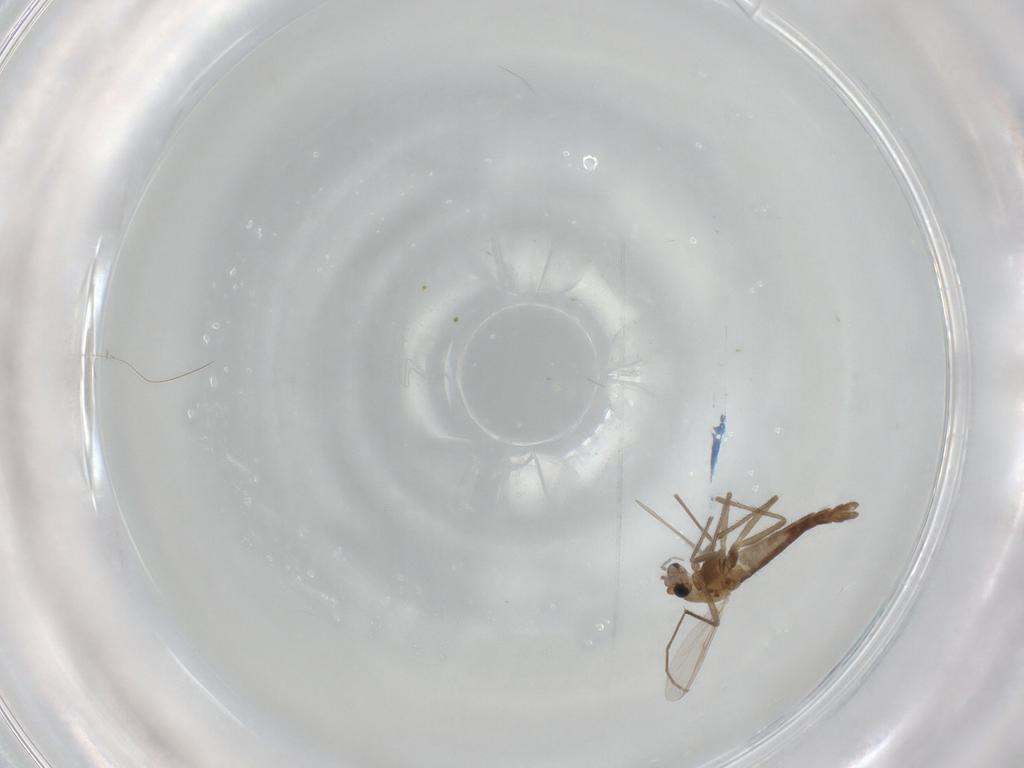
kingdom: Animalia
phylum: Arthropoda
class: Insecta
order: Diptera
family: Chironomidae
